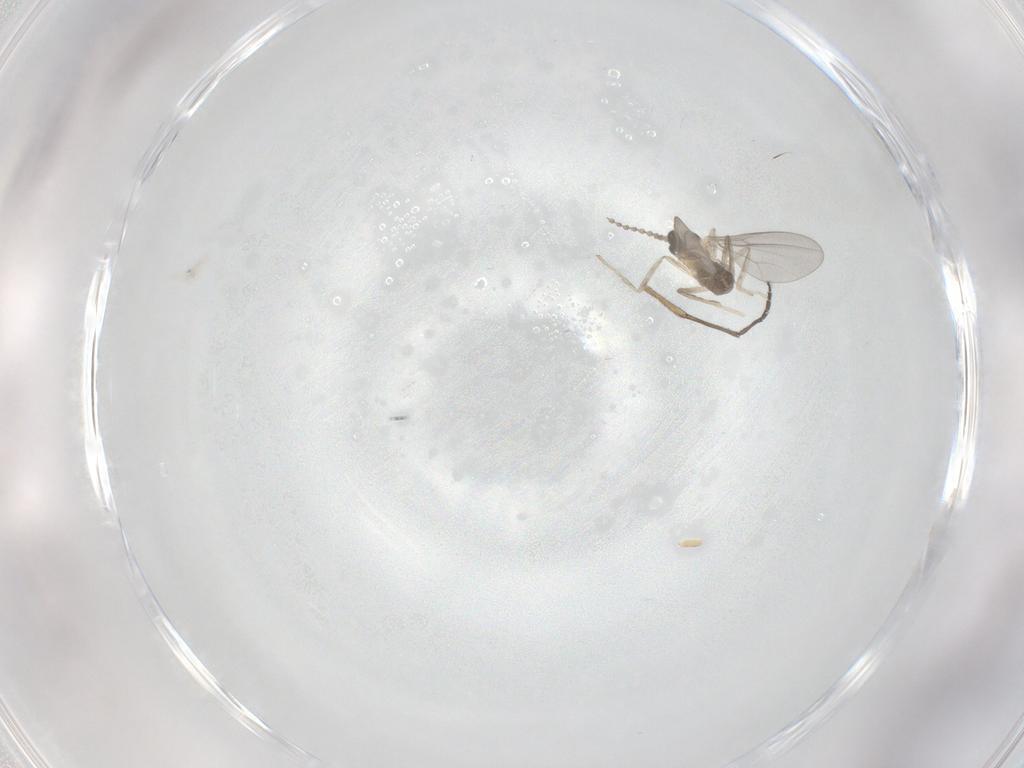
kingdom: Animalia
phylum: Arthropoda
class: Insecta
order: Diptera
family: Cecidomyiidae
